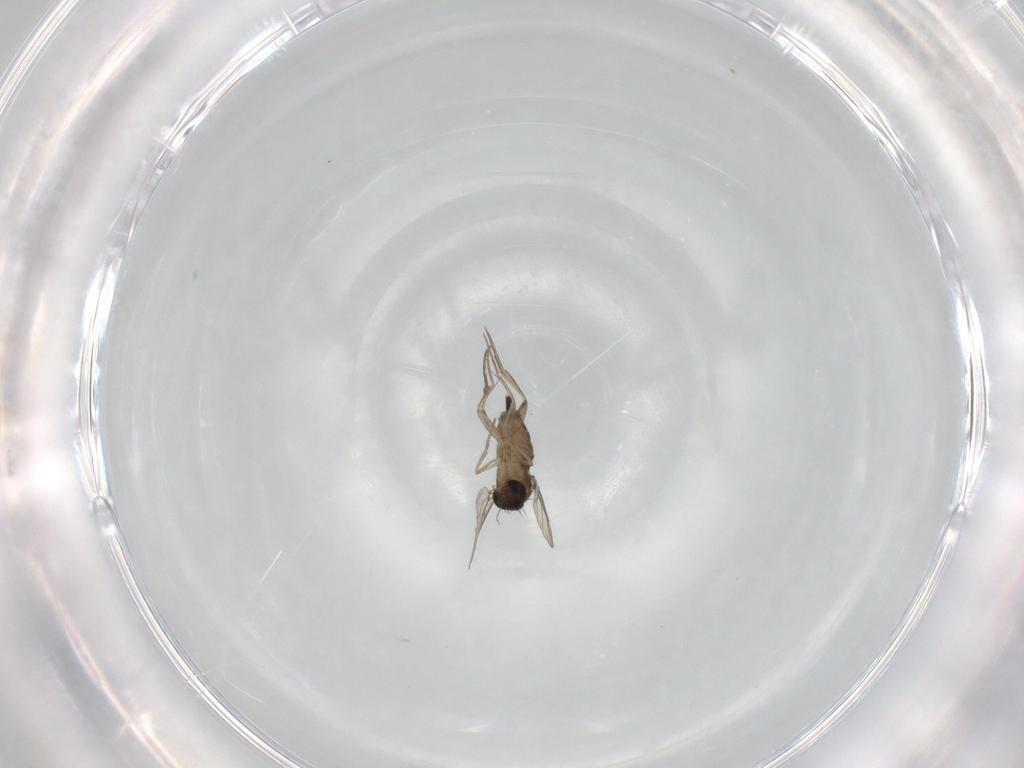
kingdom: Animalia
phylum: Arthropoda
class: Insecta
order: Diptera
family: Phoridae
